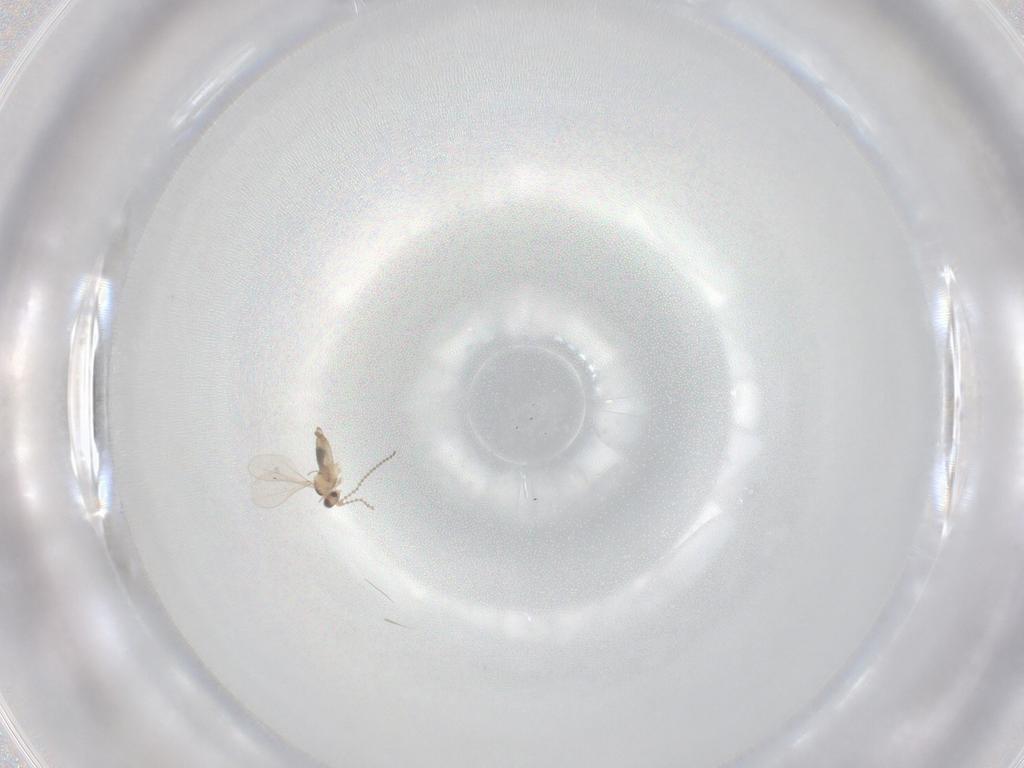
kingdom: Animalia
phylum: Arthropoda
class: Insecta
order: Diptera
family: Cecidomyiidae
